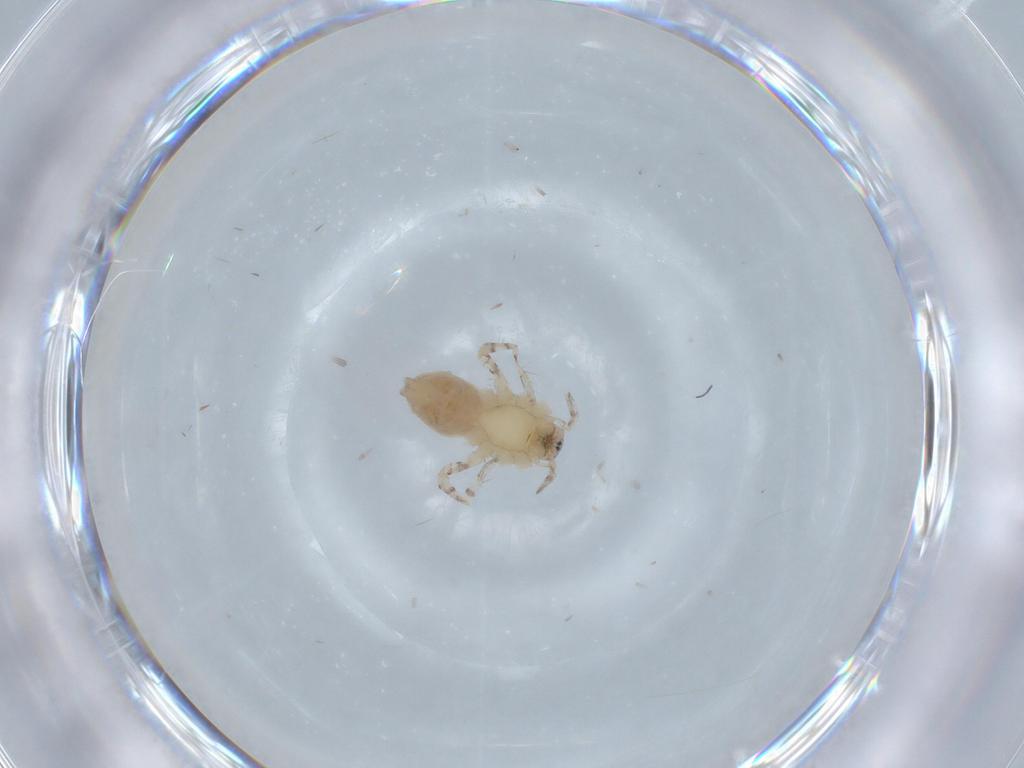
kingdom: Animalia
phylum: Arthropoda
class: Arachnida
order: Araneae
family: Anyphaenidae
